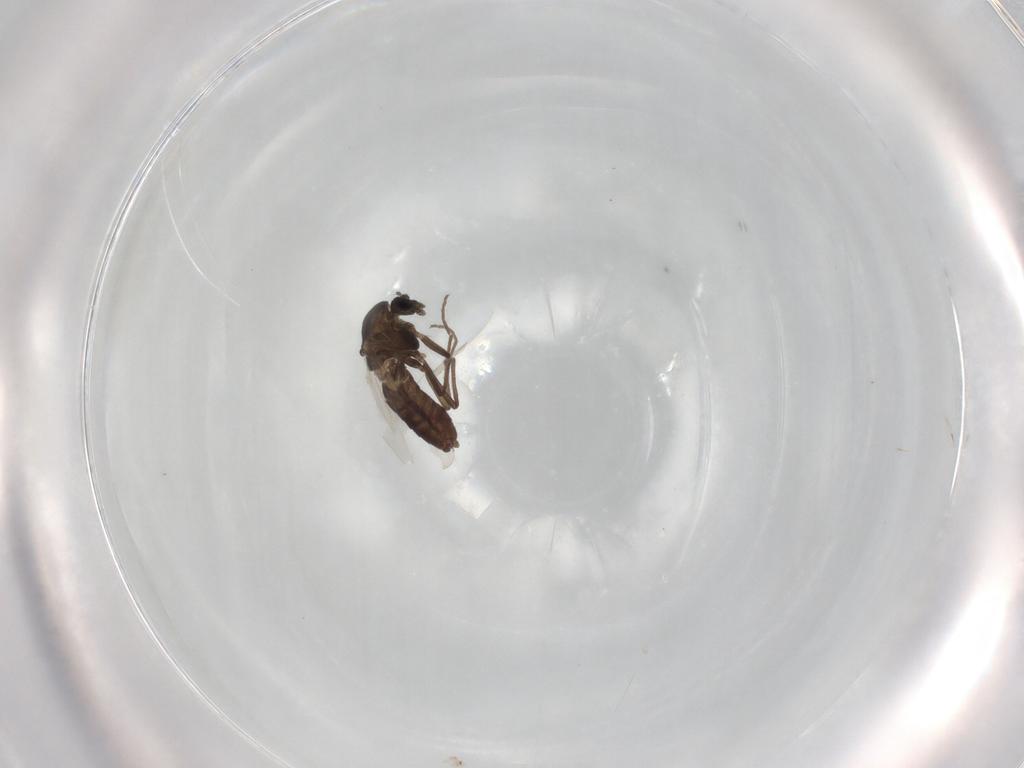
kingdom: Animalia
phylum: Arthropoda
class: Insecta
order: Diptera
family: Chironomidae
